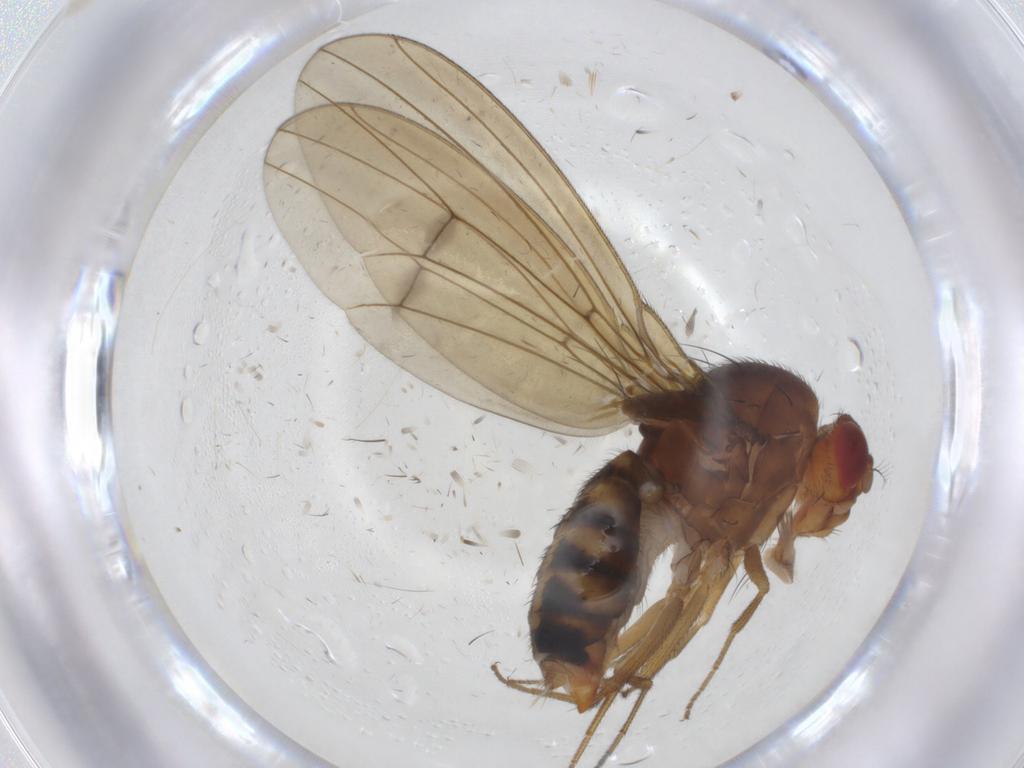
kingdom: Animalia
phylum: Arthropoda
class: Insecta
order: Diptera
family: Drosophilidae
